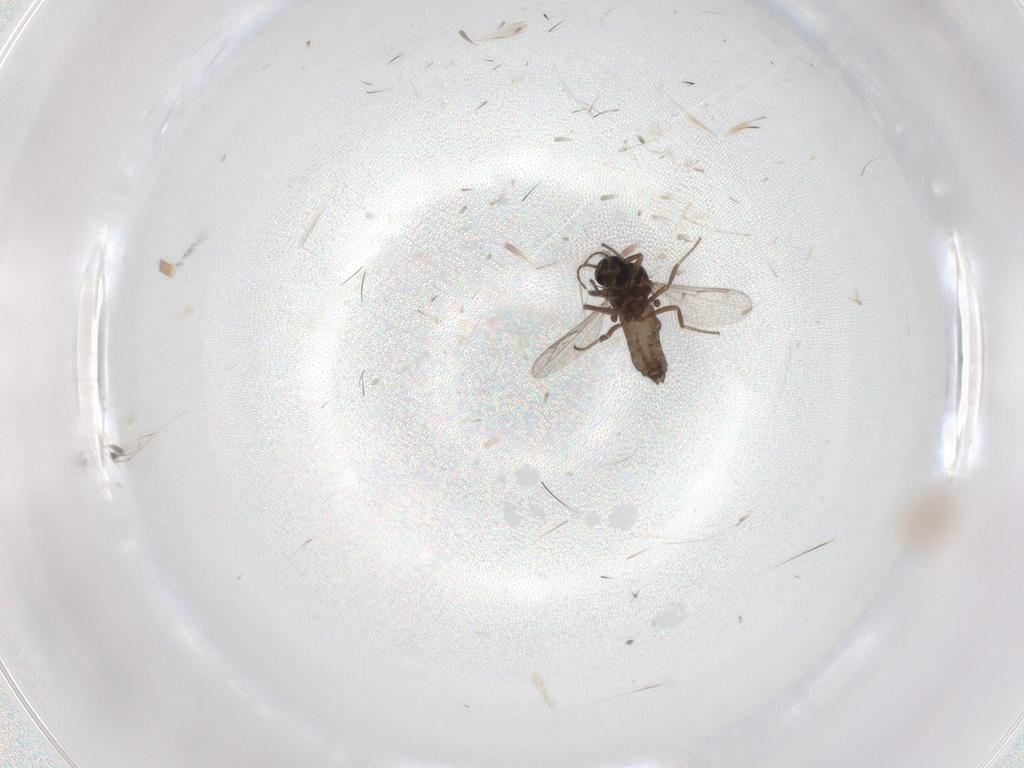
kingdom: Animalia
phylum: Arthropoda
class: Insecta
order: Diptera
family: Cecidomyiidae
